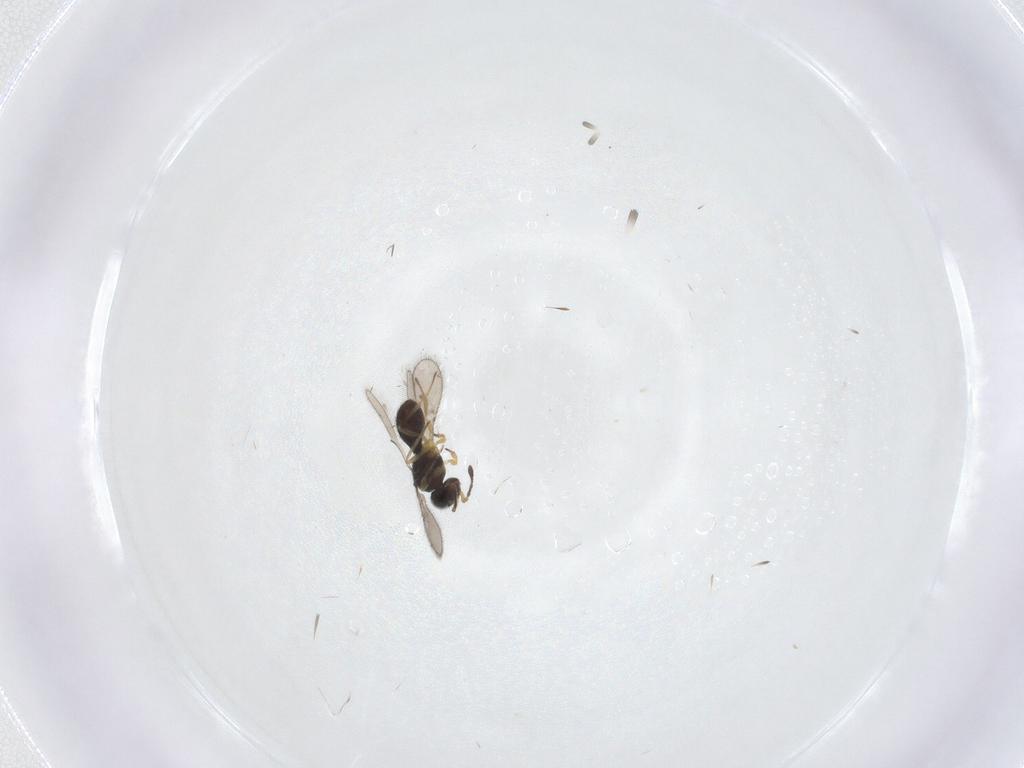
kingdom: Animalia
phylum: Arthropoda
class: Insecta
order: Hymenoptera
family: Scelionidae
